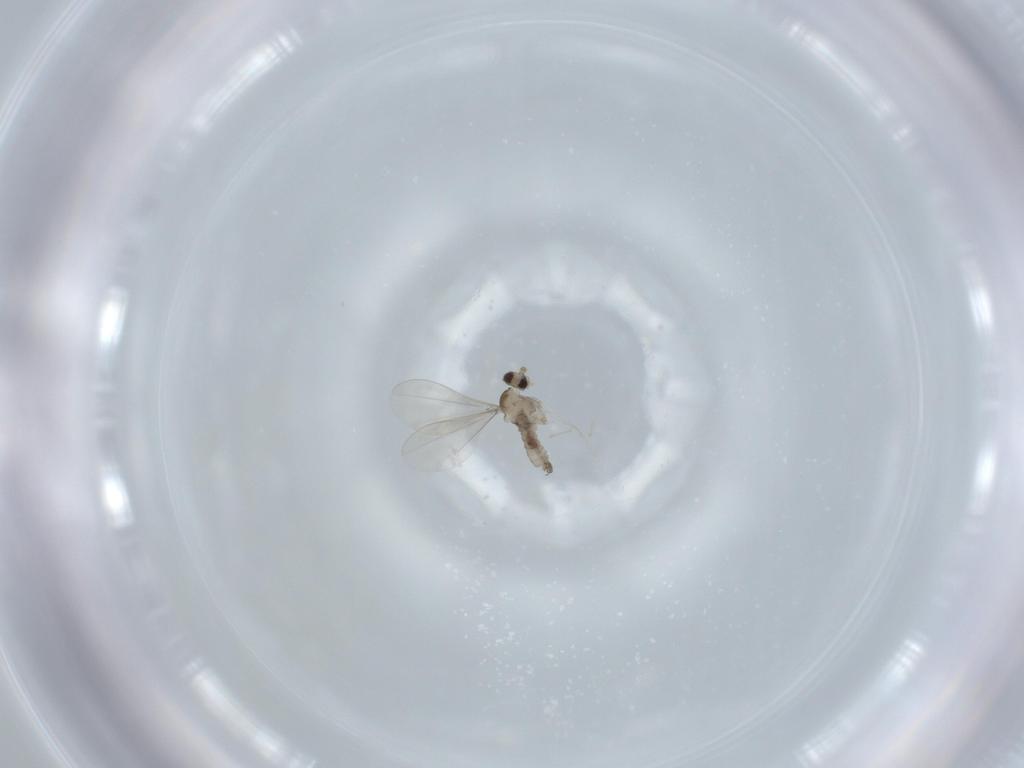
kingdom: Animalia
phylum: Arthropoda
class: Insecta
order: Diptera
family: Cecidomyiidae
